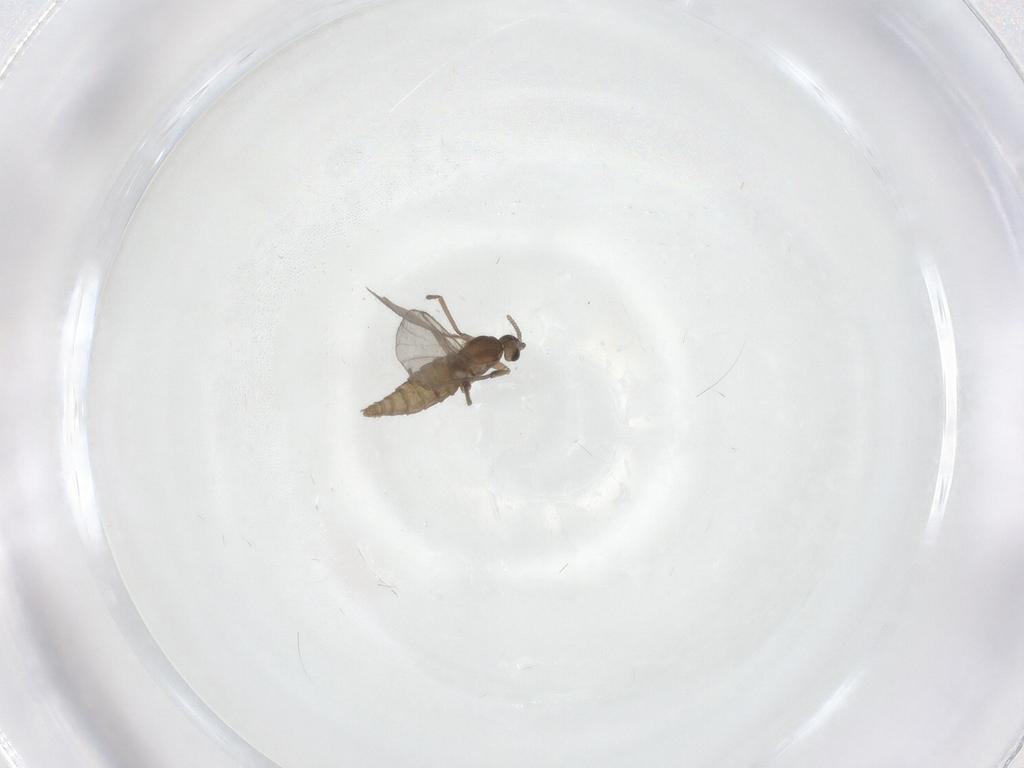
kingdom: Animalia
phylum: Arthropoda
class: Insecta
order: Diptera
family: Cecidomyiidae
